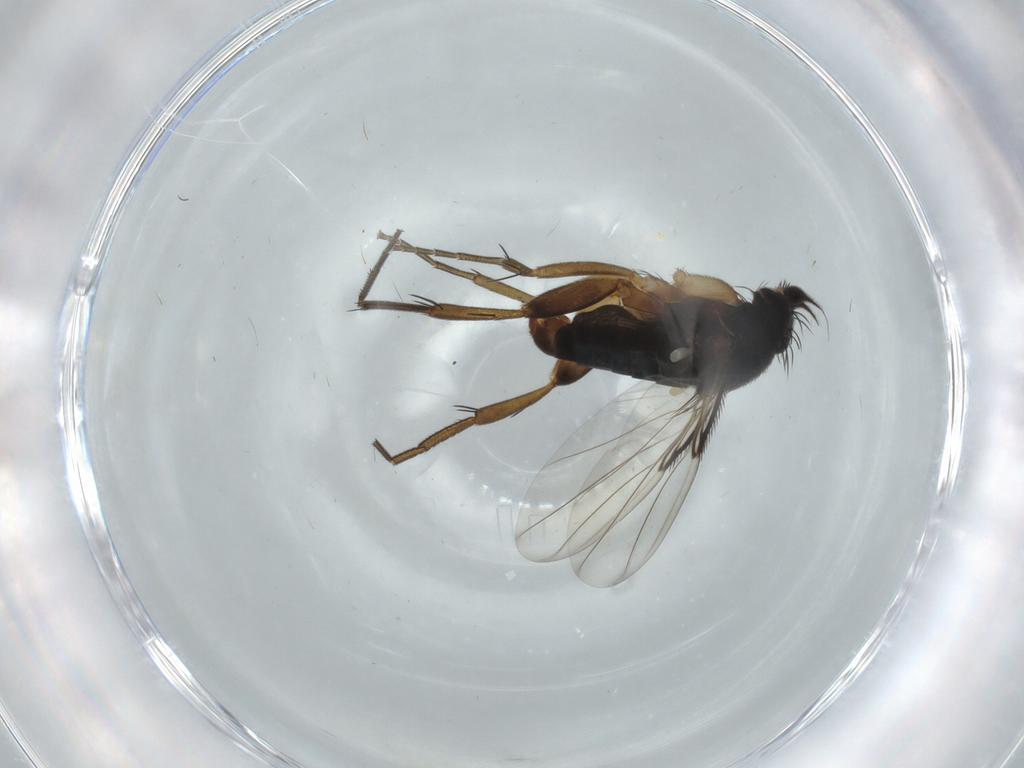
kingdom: Animalia
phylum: Arthropoda
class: Insecta
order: Diptera
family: Phoridae
